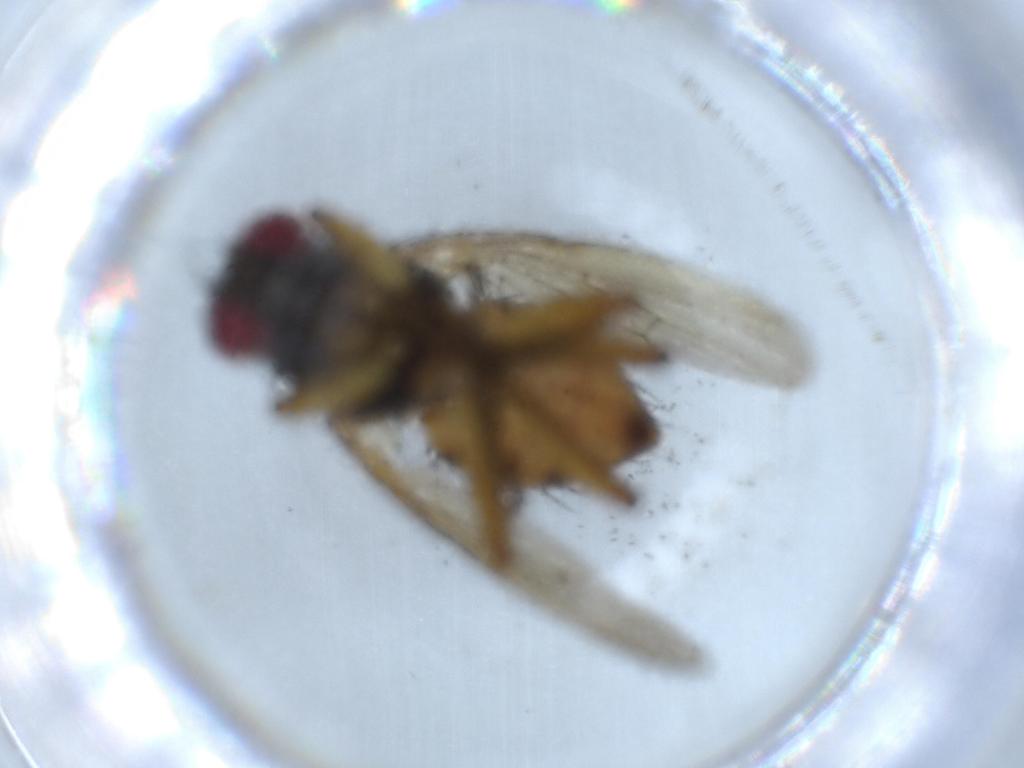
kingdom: Animalia
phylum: Arthropoda
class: Insecta
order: Diptera
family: Muscidae
